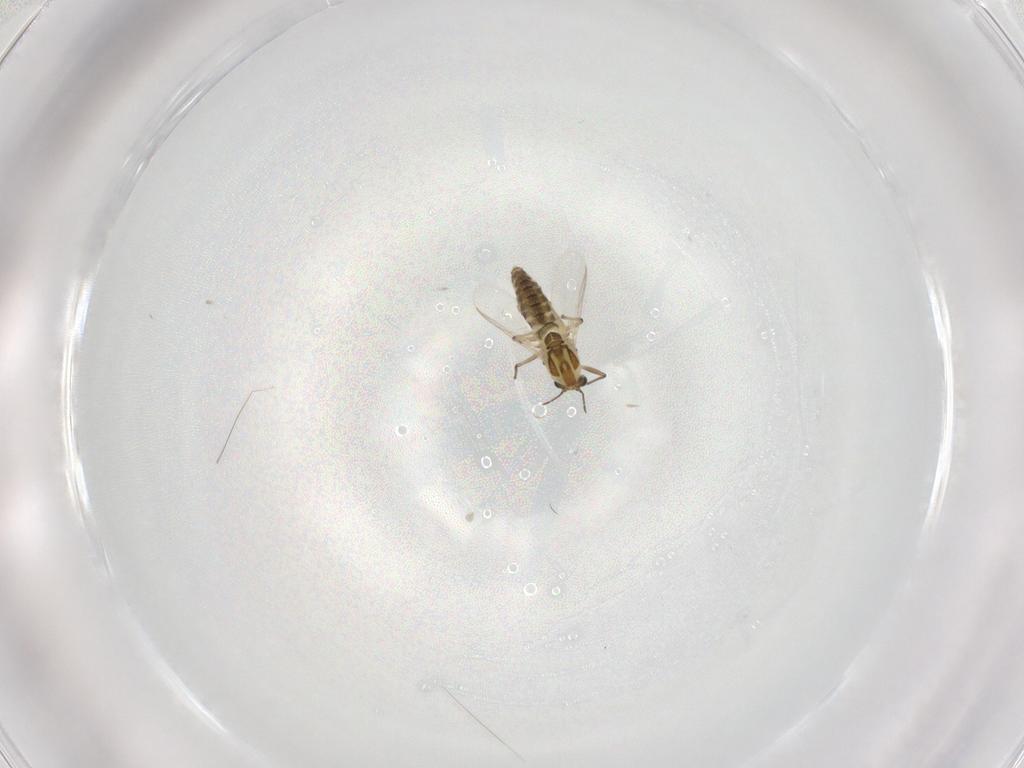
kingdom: Animalia
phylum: Arthropoda
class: Insecta
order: Diptera
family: Chironomidae
